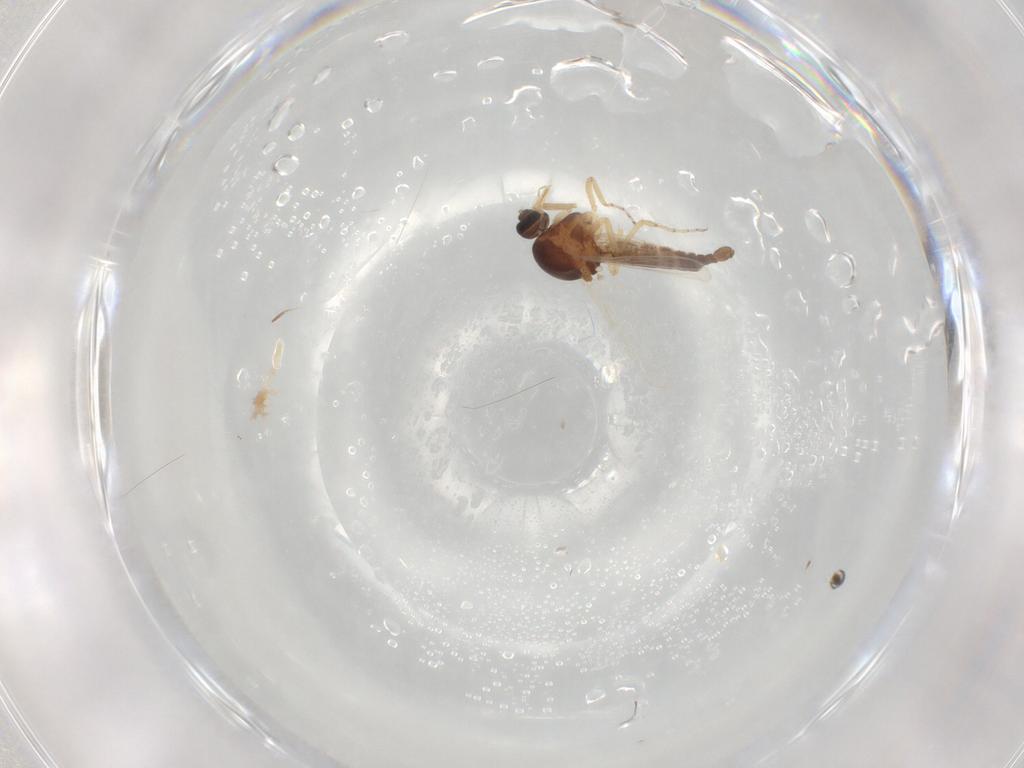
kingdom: Animalia
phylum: Arthropoda
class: Insecta
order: Diptera
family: Ceratopogonidae
